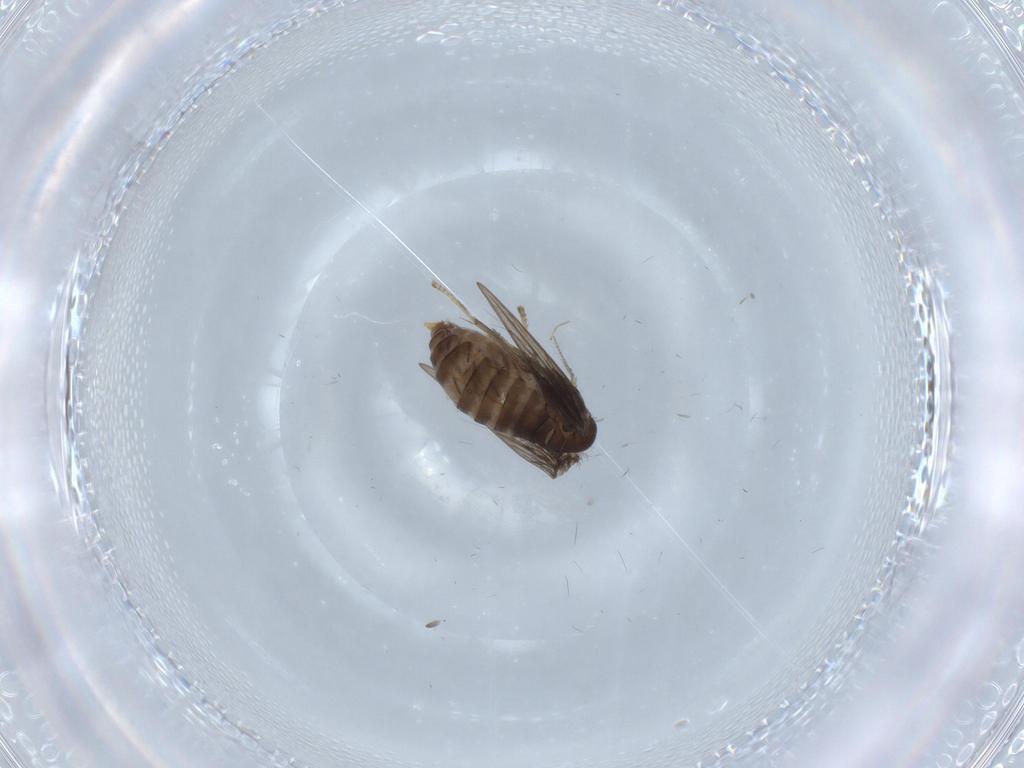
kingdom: Animalia
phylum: Arthropoda
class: Insecta
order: Diptera
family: Psychodidae
